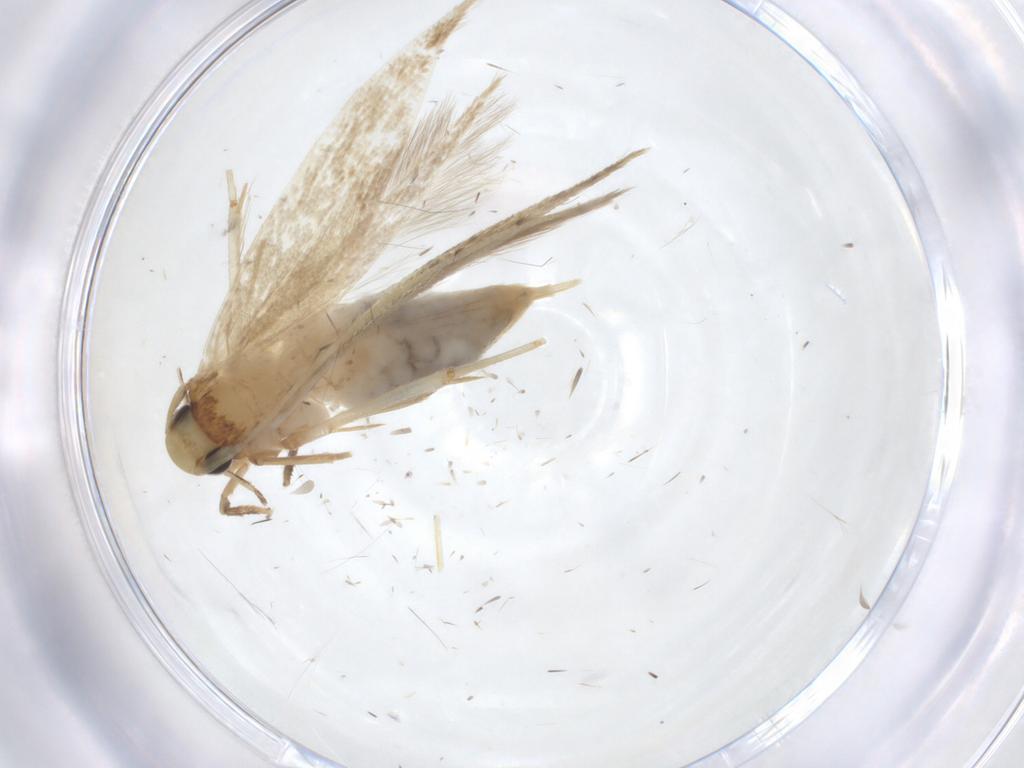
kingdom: Animalia
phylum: Arthropoda
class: Insecta
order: Lepidoptera
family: Tineidae
